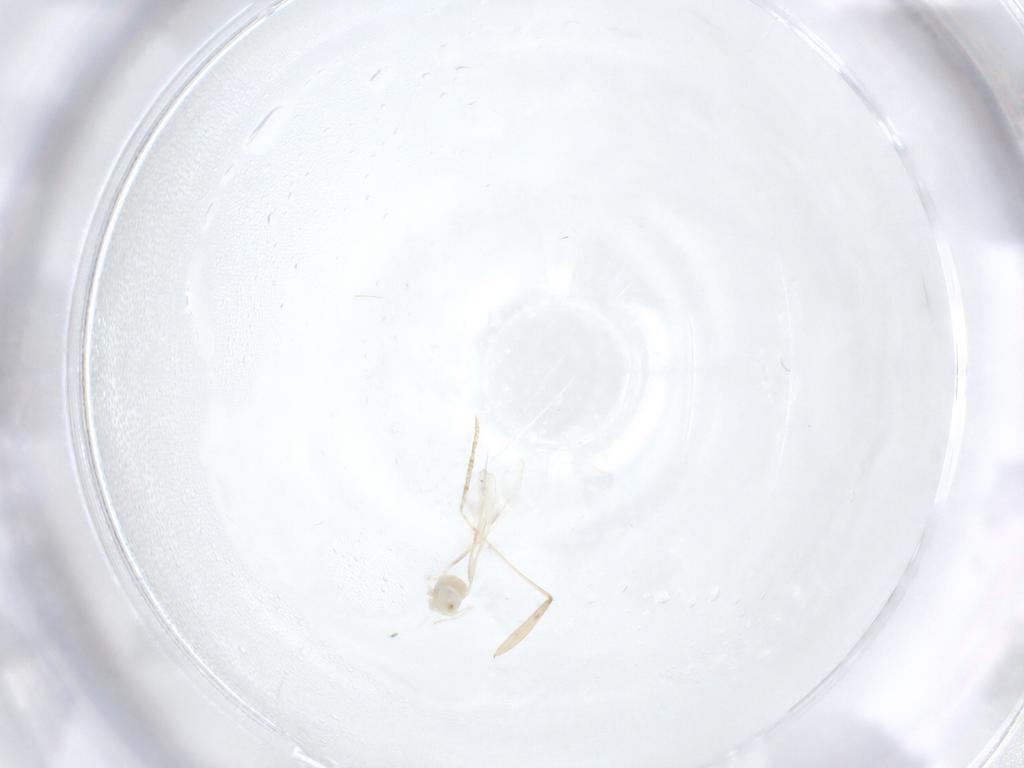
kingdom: Animalia
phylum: Arthropoda
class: Insecta
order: Diptera
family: Cecidomyiidae
